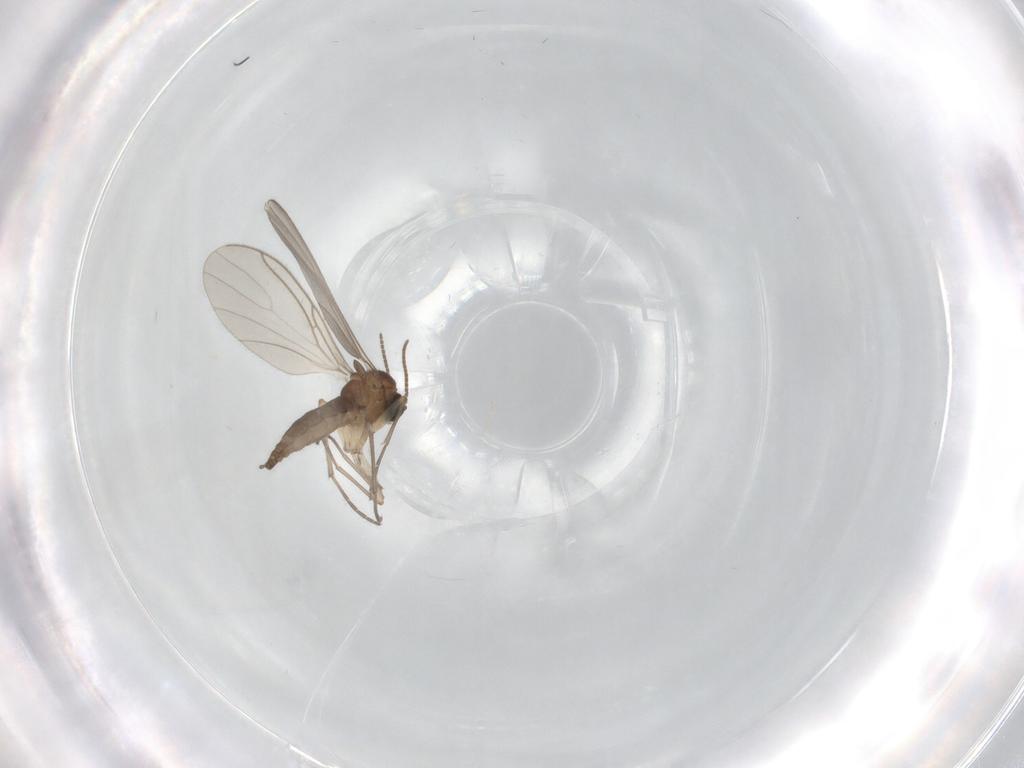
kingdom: Animalia
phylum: Arthropoda
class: Insecta
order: Diptera
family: Sciaridae
